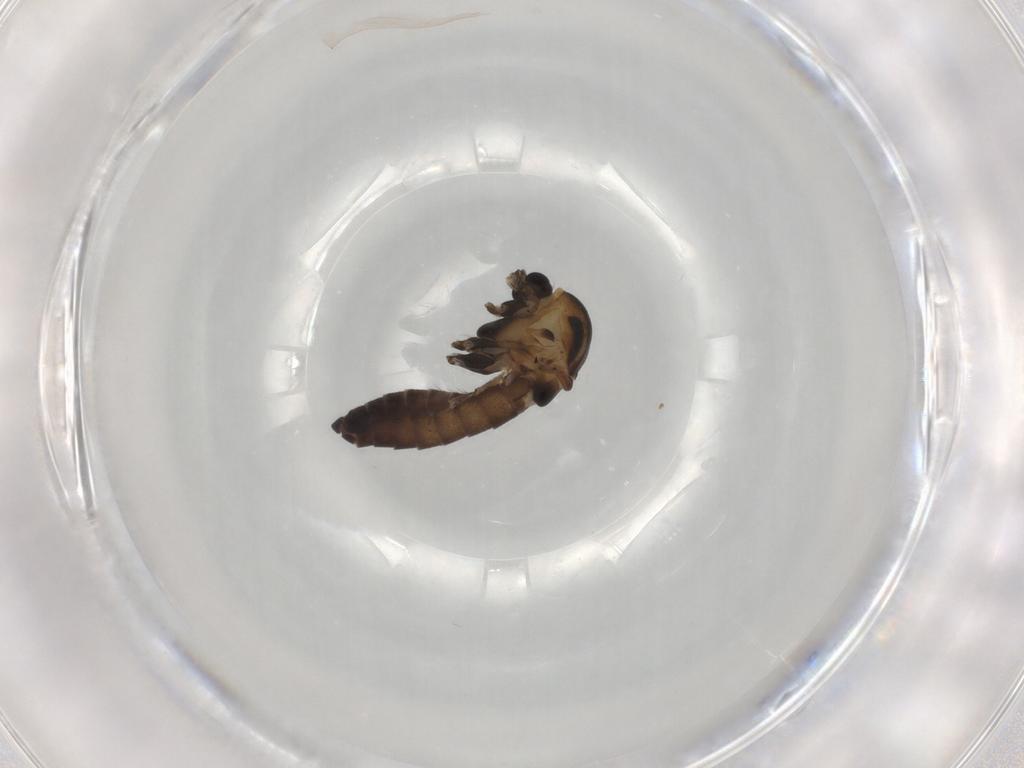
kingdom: Animalia
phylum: Arthropoda
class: Insecta
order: Diptera
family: Chironomidae
